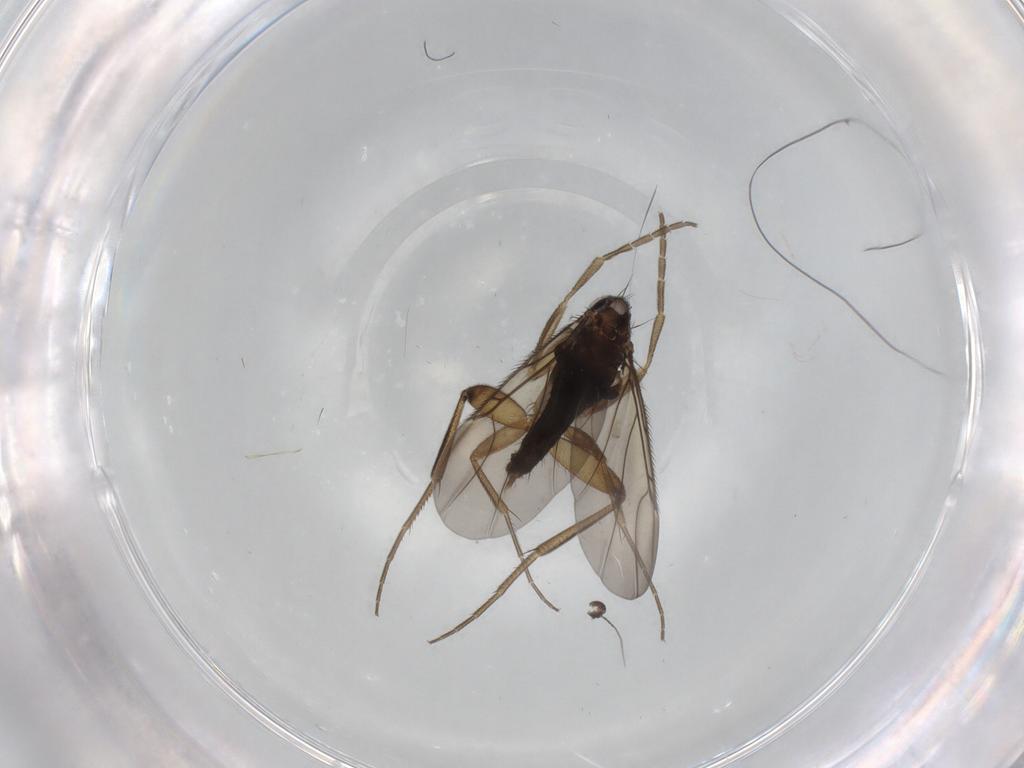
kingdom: Animalia
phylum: Arthropoda
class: Insecta
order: Diptera
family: Phoridae
